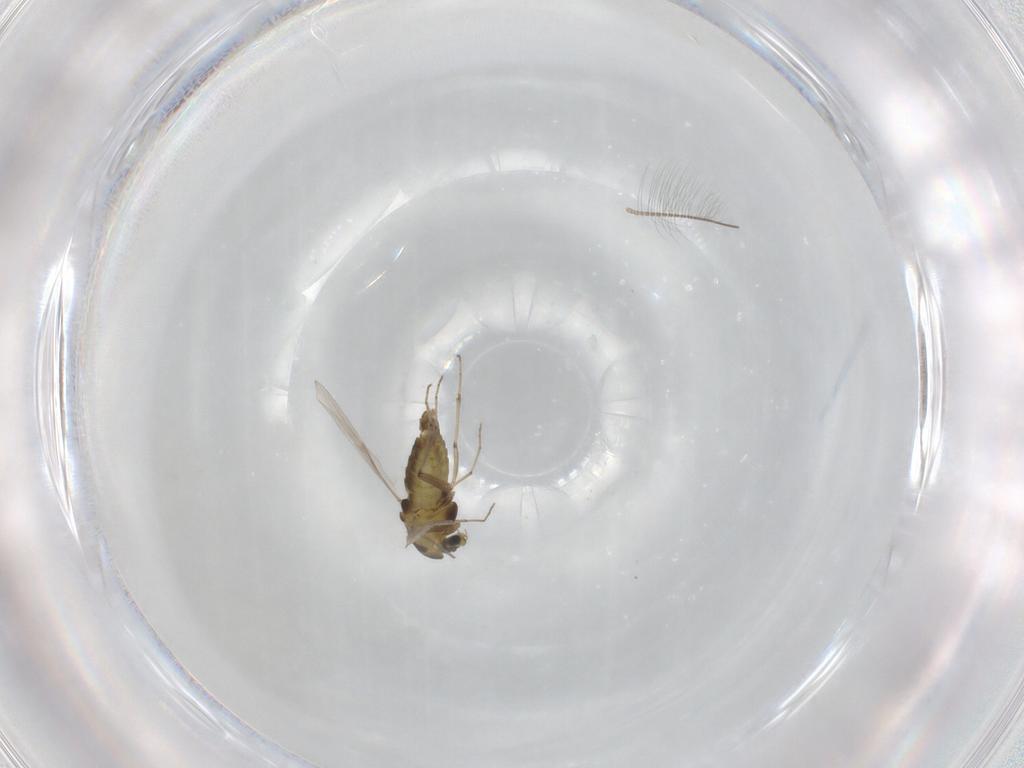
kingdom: Animalia
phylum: Arthropoda
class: Insecta
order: Diptera
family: Chironomidae
